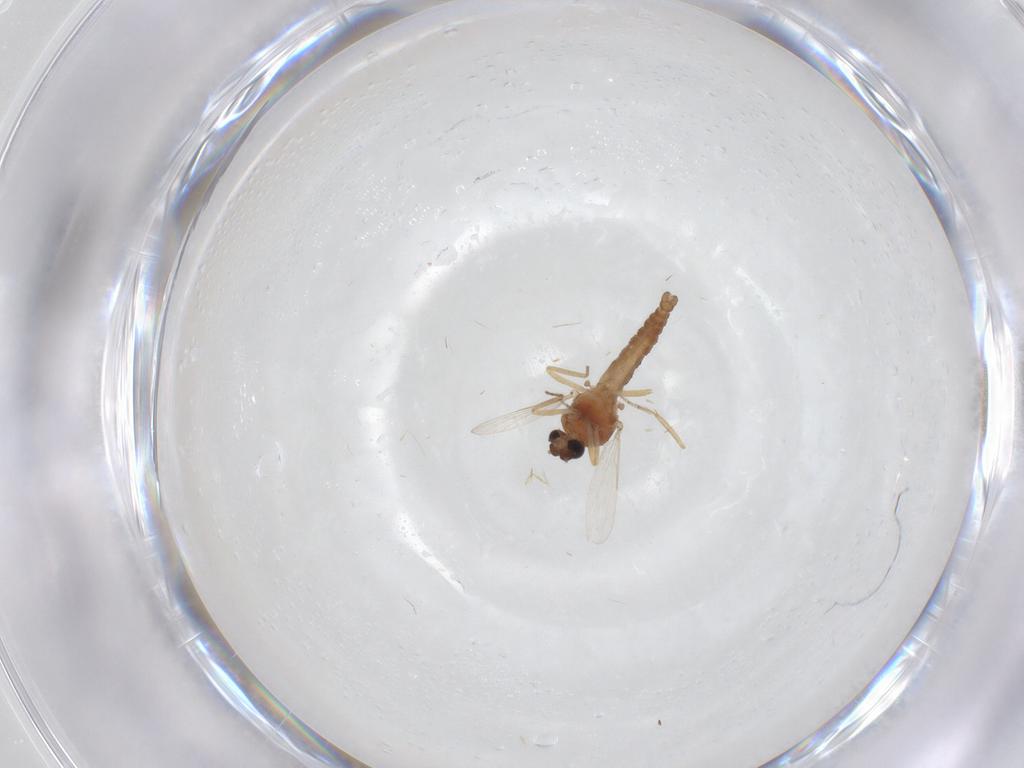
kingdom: Animalia
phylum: Arthropoda
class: Insecta
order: Diptera
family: Ceratopogonidae
